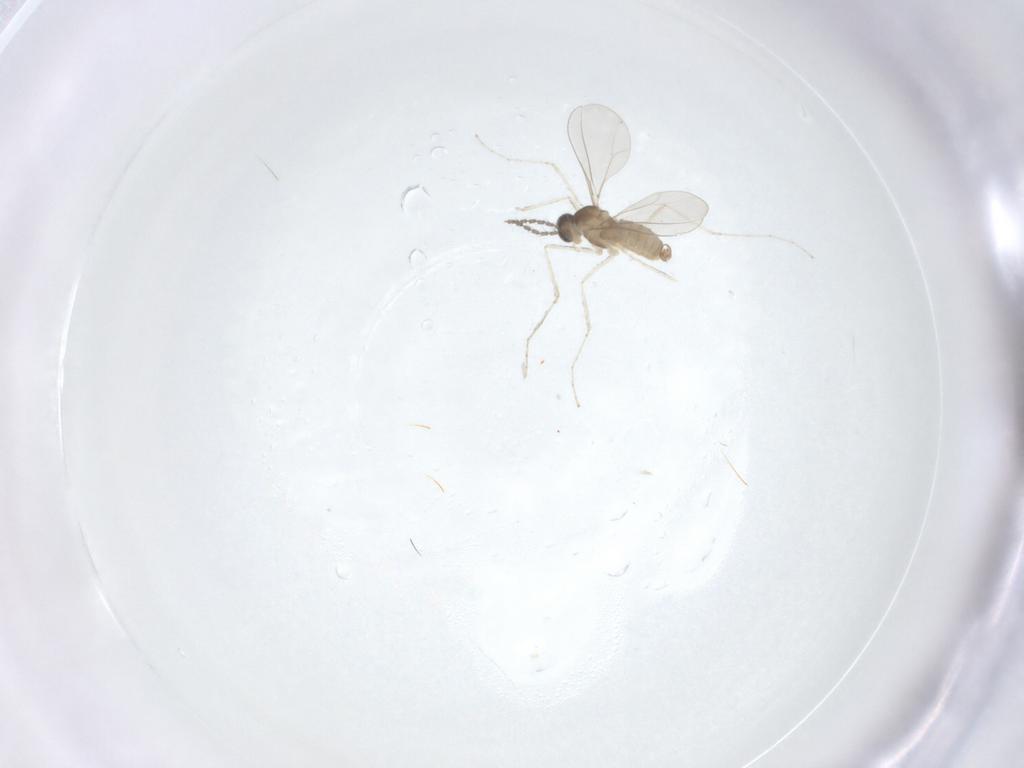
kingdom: Animalia
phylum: Arthropoda
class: Insecta
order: Diptera
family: Cecidomyiidae
